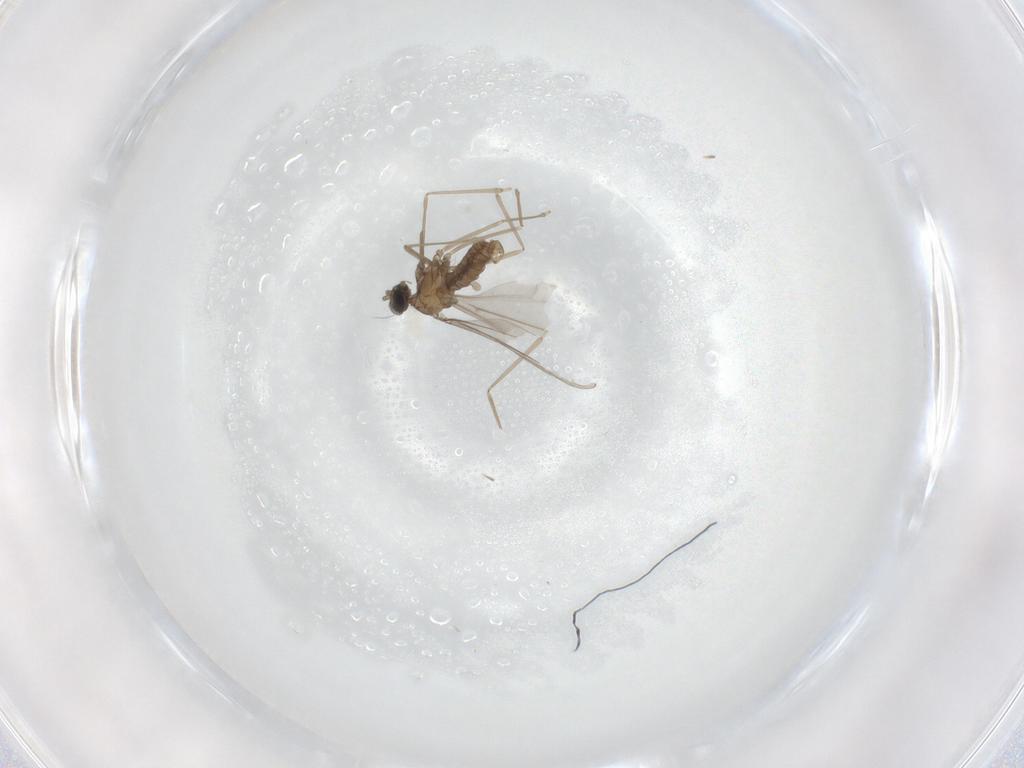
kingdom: Animalia
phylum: Arthropoda
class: Insecta
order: Diptera
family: Cecidomyiidae
